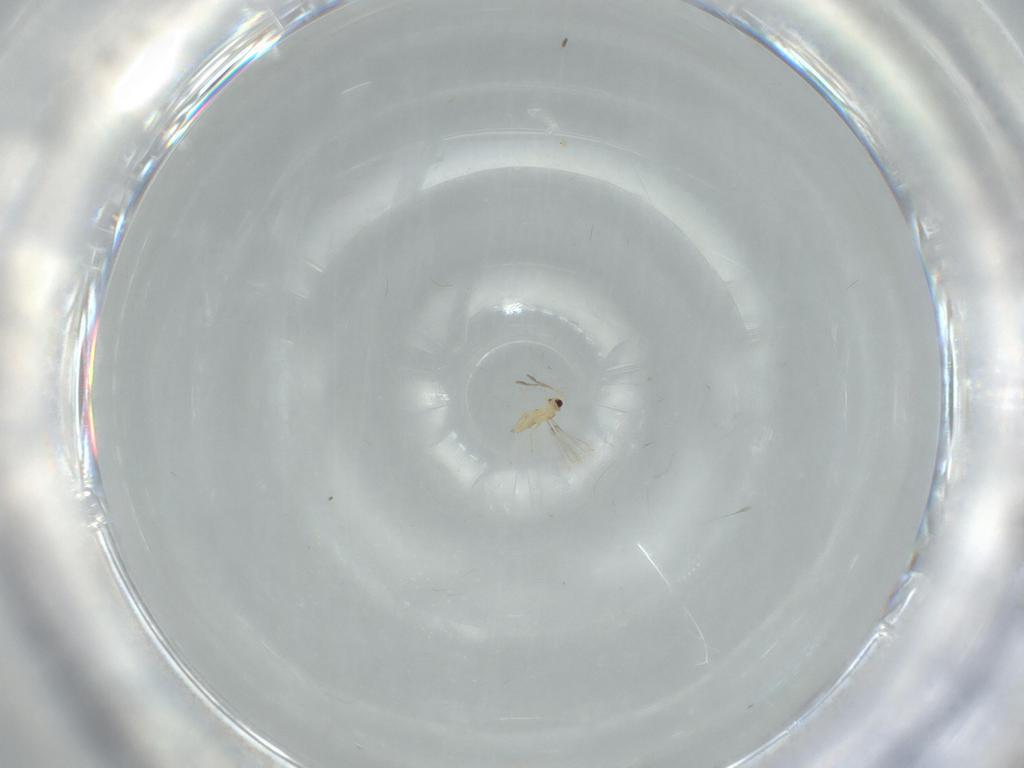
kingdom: Animalia
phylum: Arthropoda
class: Insecta
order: Hymenoptera
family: Mymaridae
